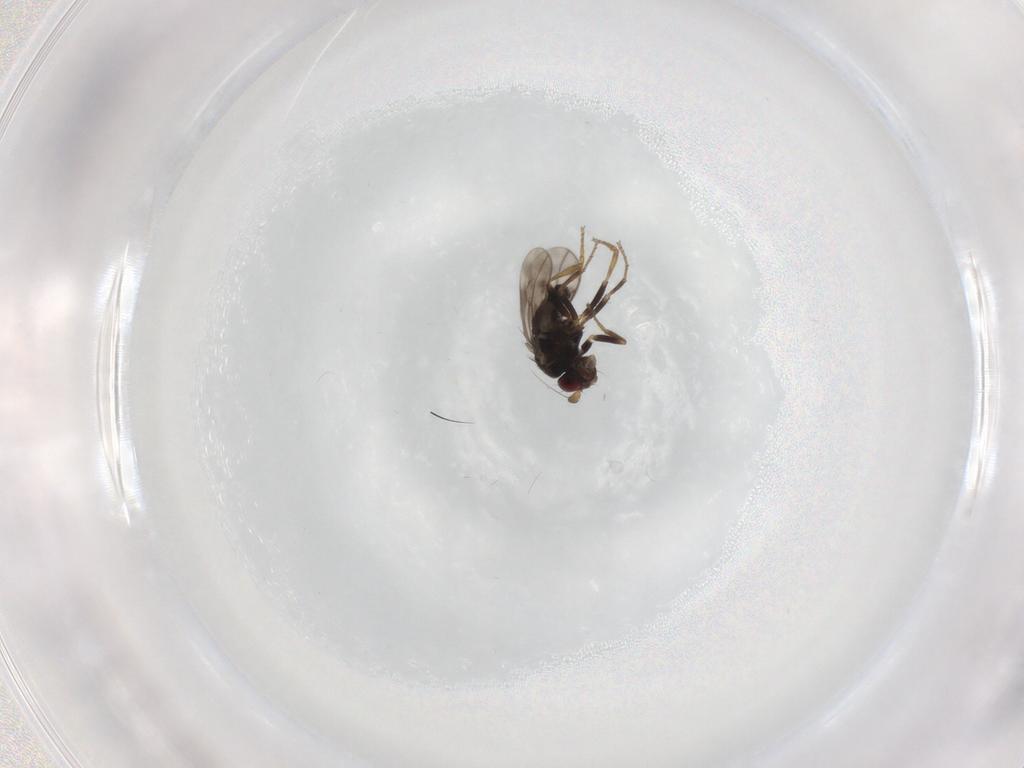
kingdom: Animalia
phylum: Arthropoda
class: Insecta
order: Diptera
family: Sphaeroceridae
